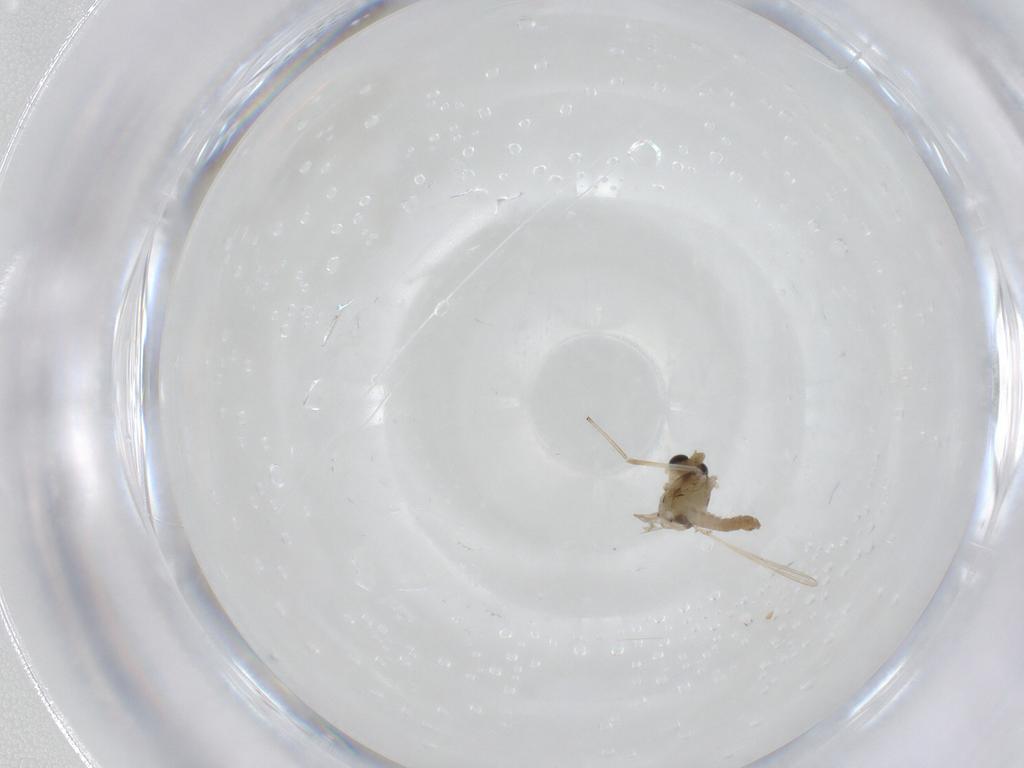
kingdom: Animalia
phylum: Arthropoda
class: Insecta
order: Diptera
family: Chironomidae
